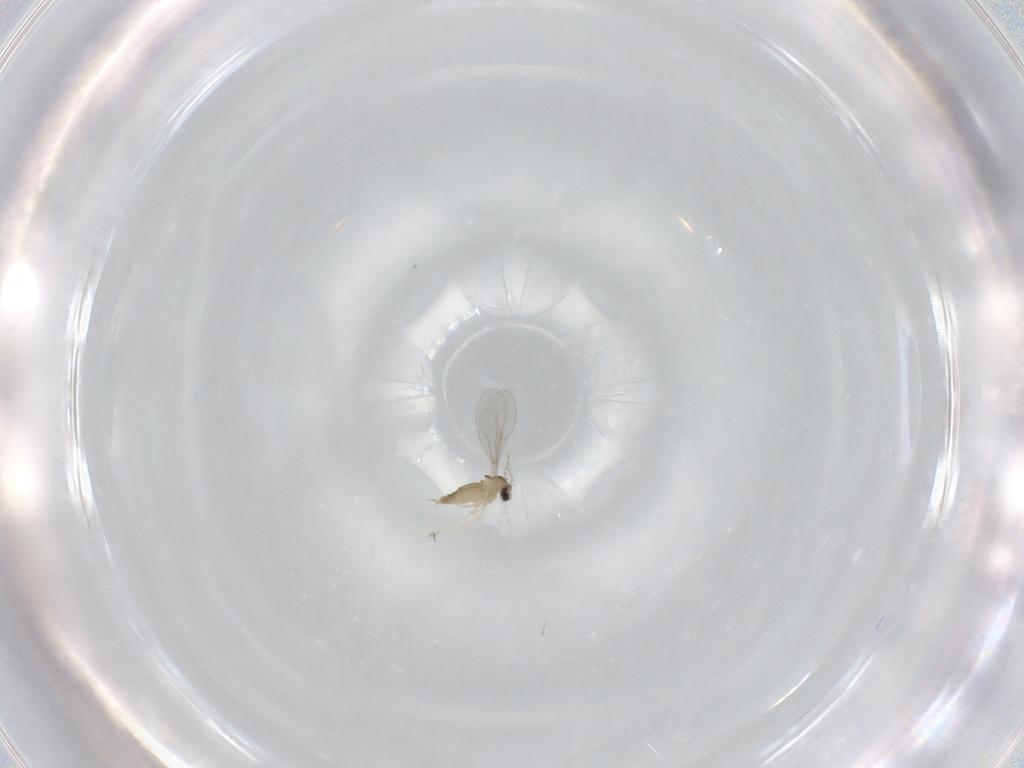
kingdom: Animalia
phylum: Arthropoda
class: Insecta
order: Diptera
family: Cecidomyiidae
